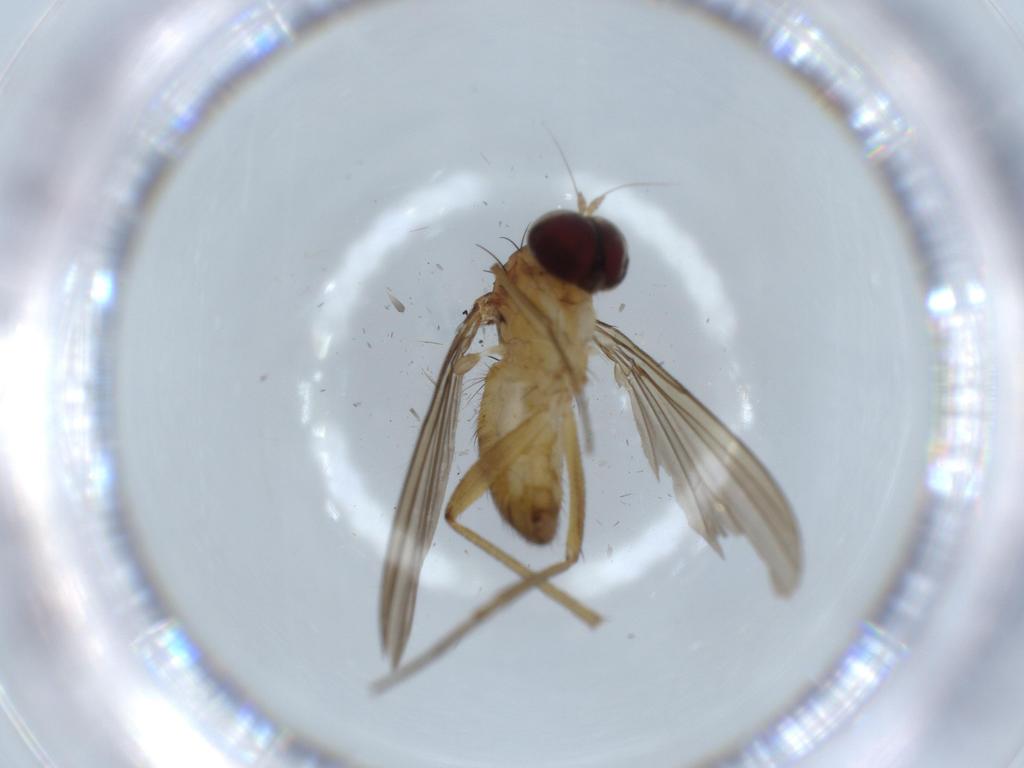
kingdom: Animalia
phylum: Arthropoda
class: Insecta
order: Diptera
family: Dolichopodidae
